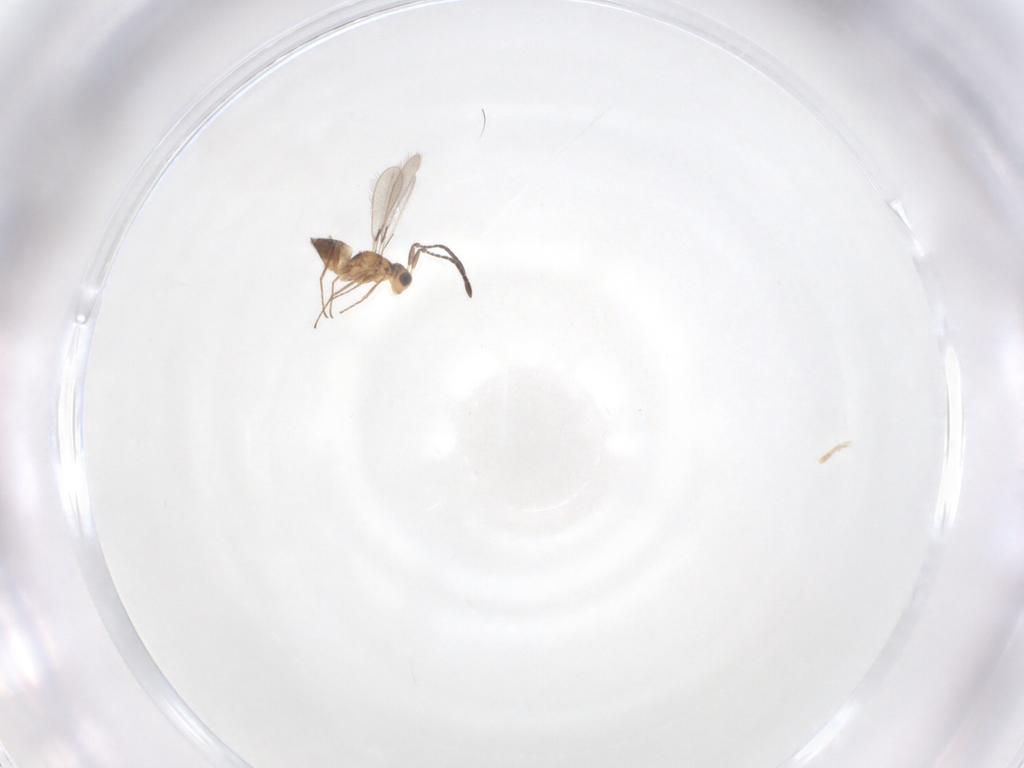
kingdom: Animalia
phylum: Arthropoda
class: Insecta
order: Hymenoptera
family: Mymaridae
